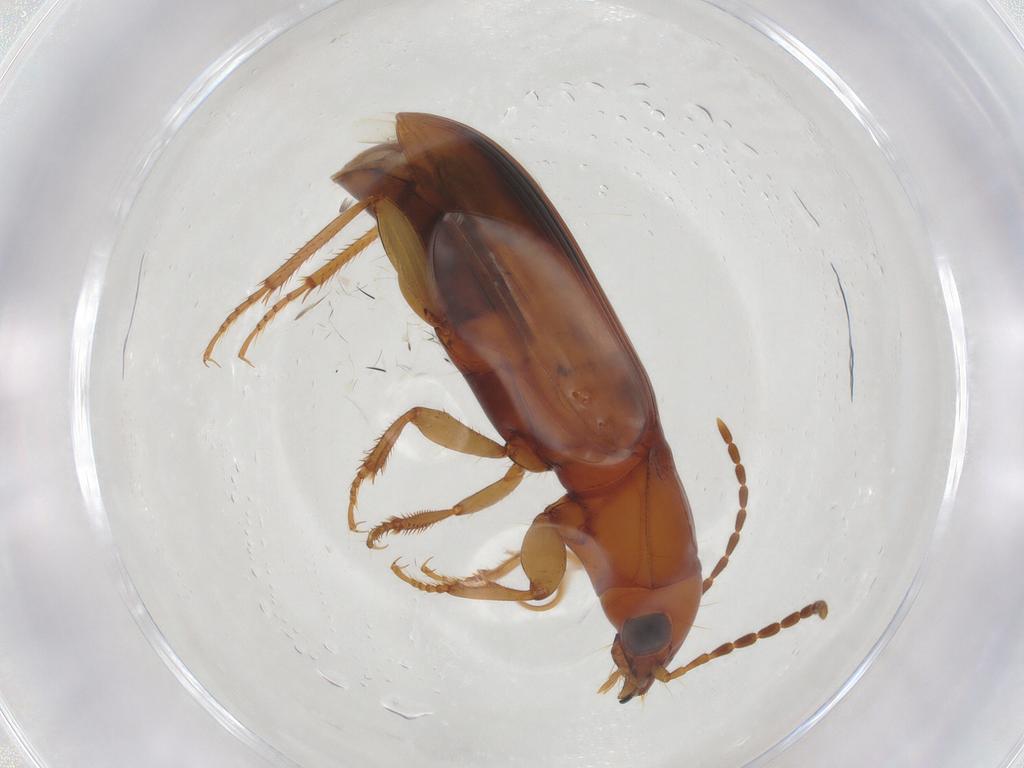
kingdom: Animalia
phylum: Arthropoda
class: Insecta
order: Coleoptera
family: Carabidae
